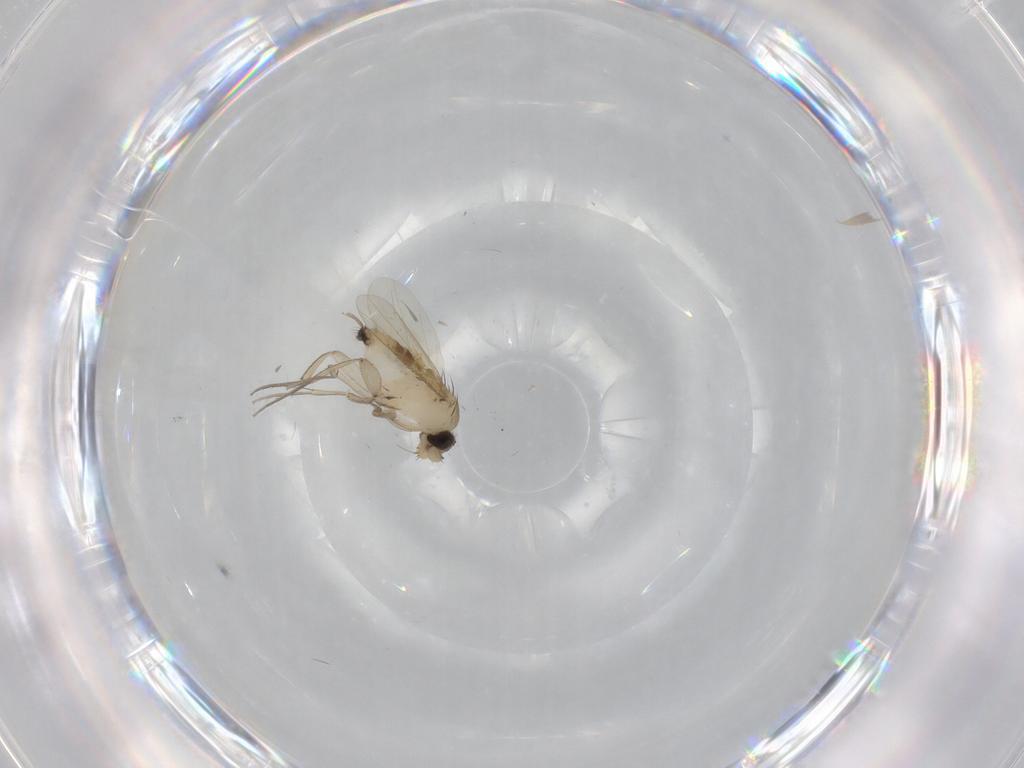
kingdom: Animalia
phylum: Arthropoda
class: Insecta
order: Diptera
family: Phoridae
